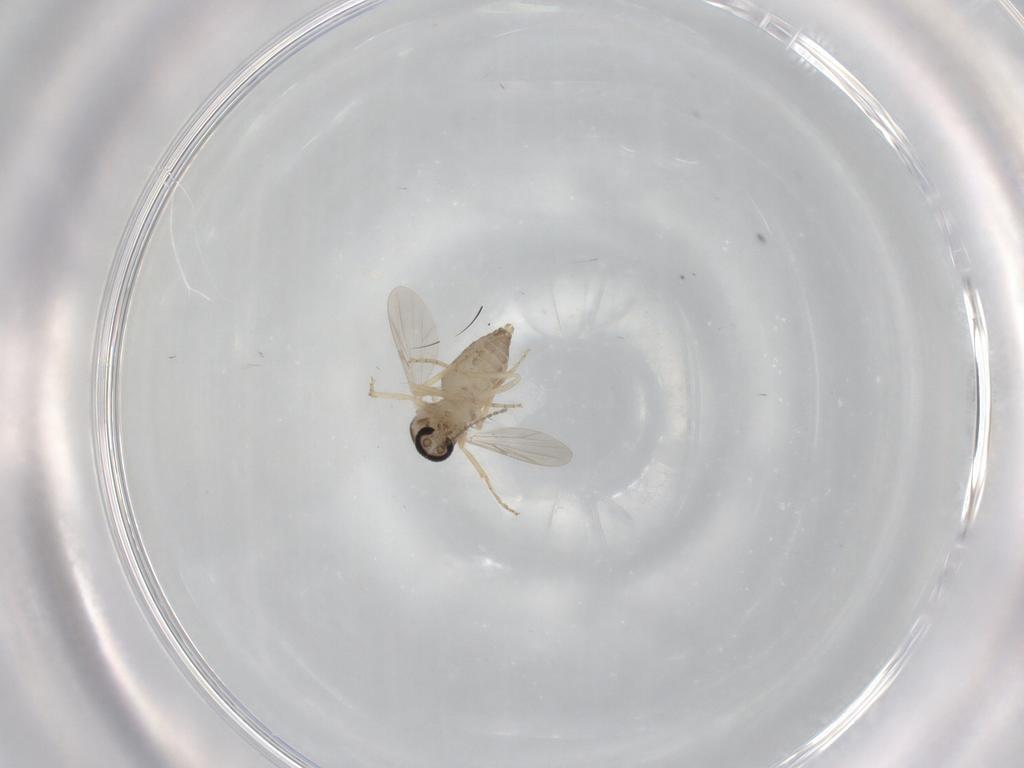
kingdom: Animalia
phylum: Arthropoda
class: Insecta
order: Diptera
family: Ceratopogonidae
